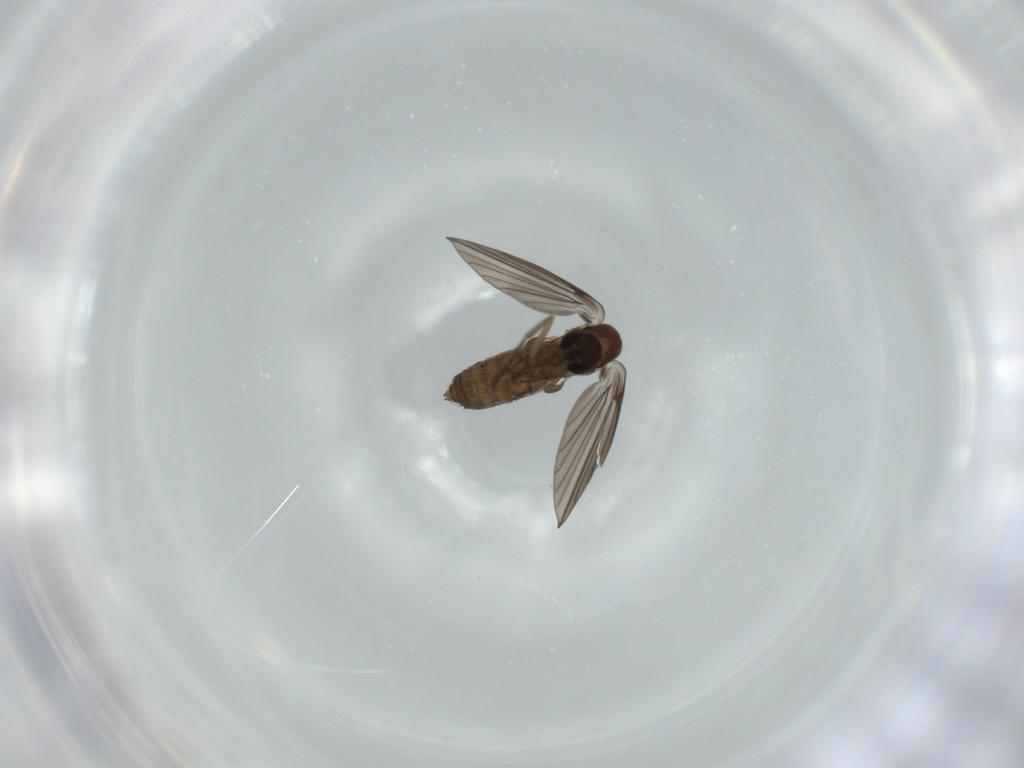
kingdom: Animalia
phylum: Arthropoda
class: Insecta
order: Diptera
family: Psychodidae
